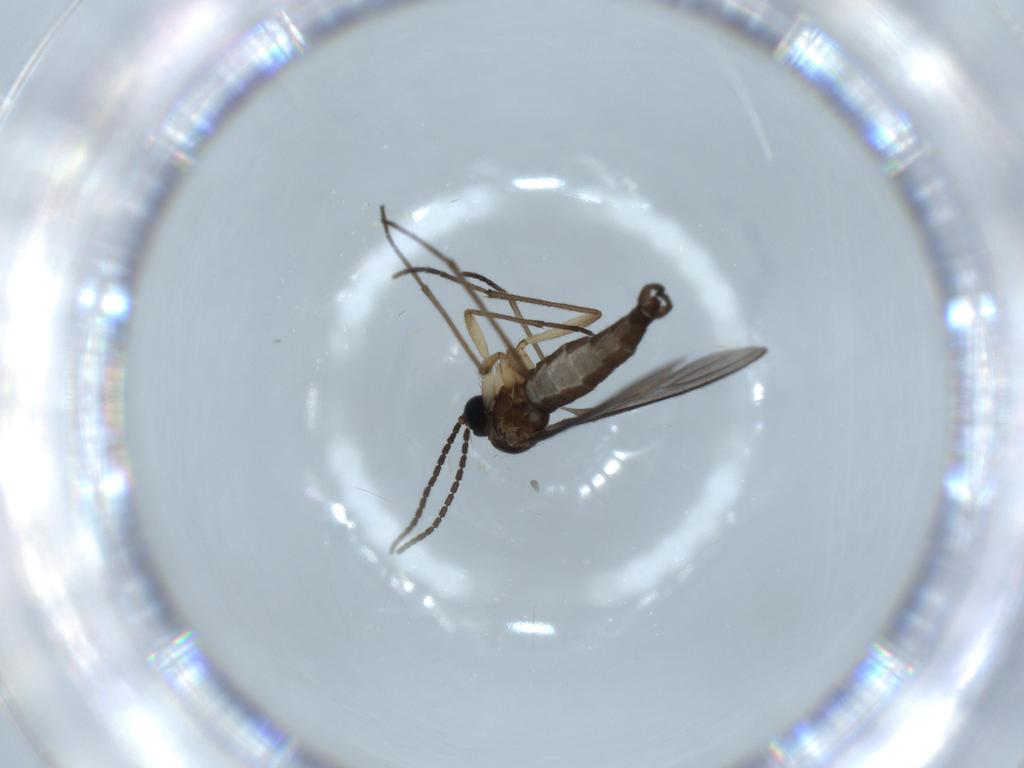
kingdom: Animalia
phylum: Arthropoda
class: Insecta
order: Diptera
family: Sciaridae
